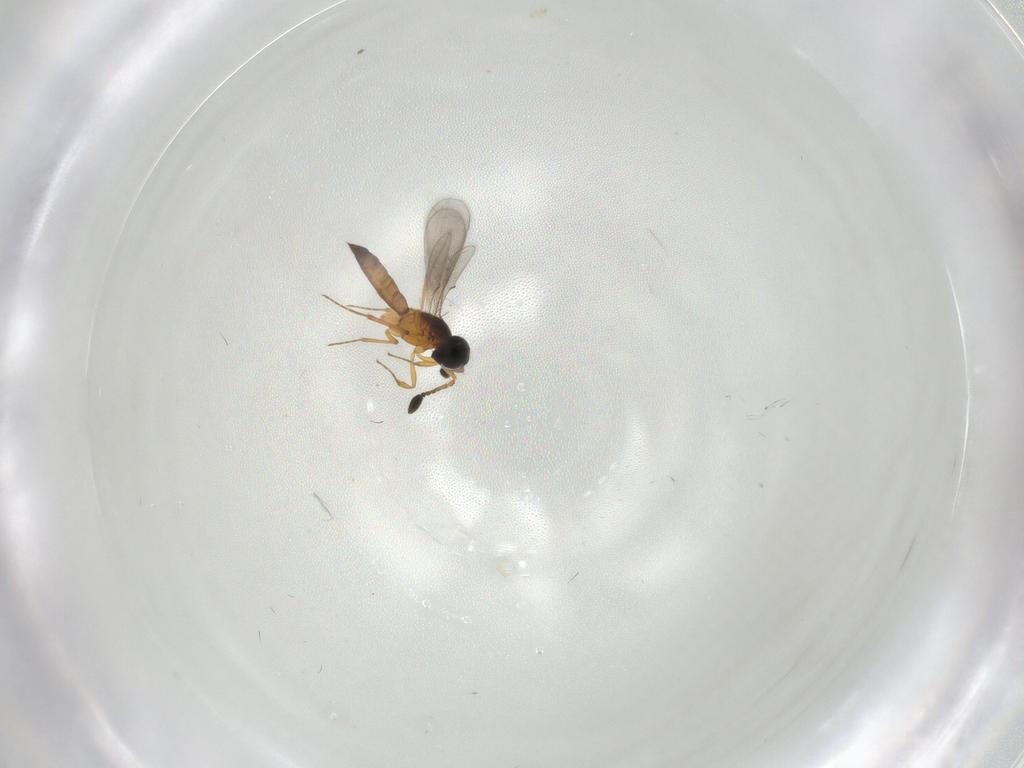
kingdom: Animalia
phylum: Arthropoda
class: Insecta
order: Hymenoptera
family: Scelionidae
